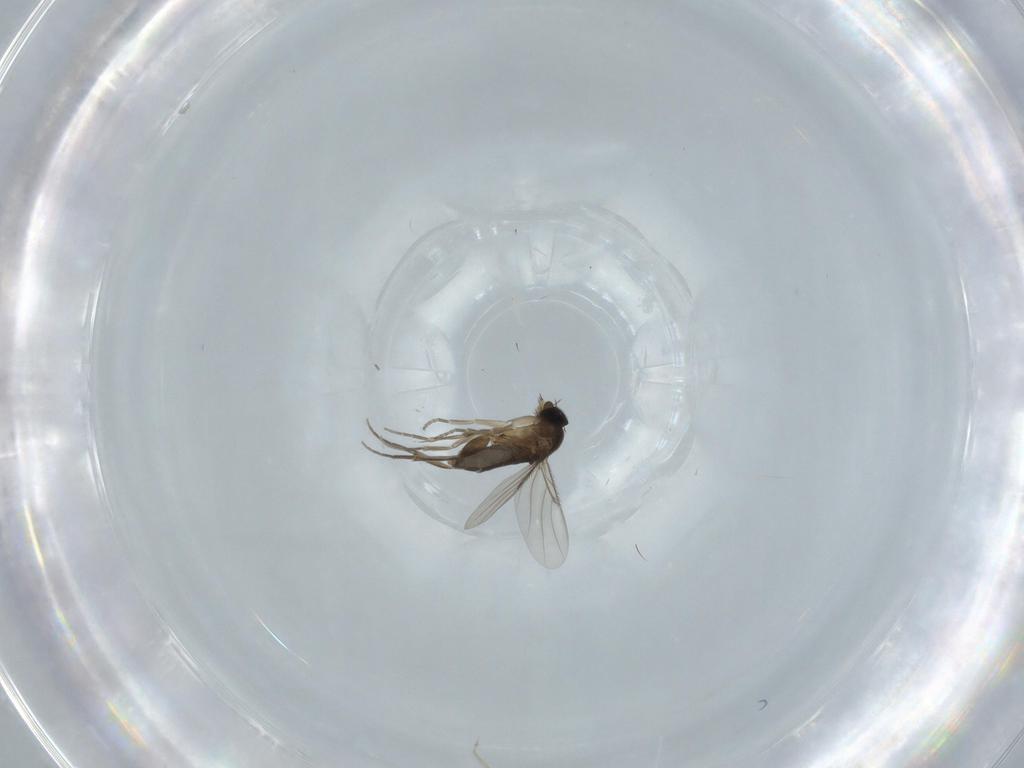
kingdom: Animalia
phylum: Arthropoda
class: Insecta
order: Diptera
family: Phoridae
